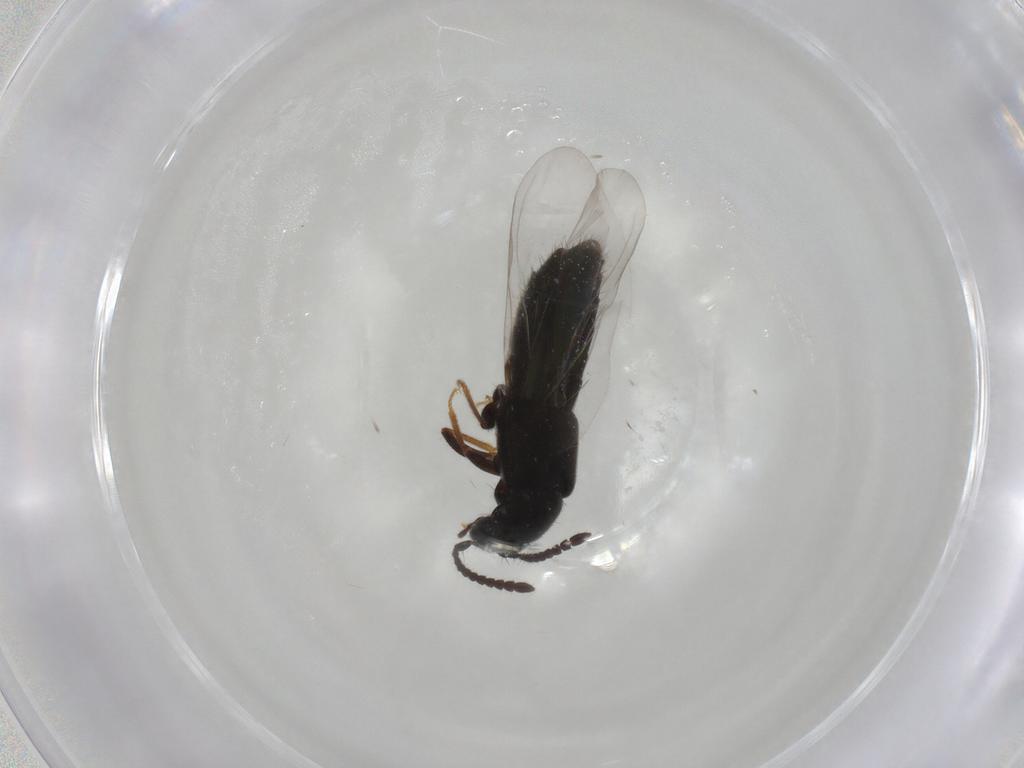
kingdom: Animalia
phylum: Arthropoda
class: Insecta
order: Coleoptera
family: Staphylinidae
